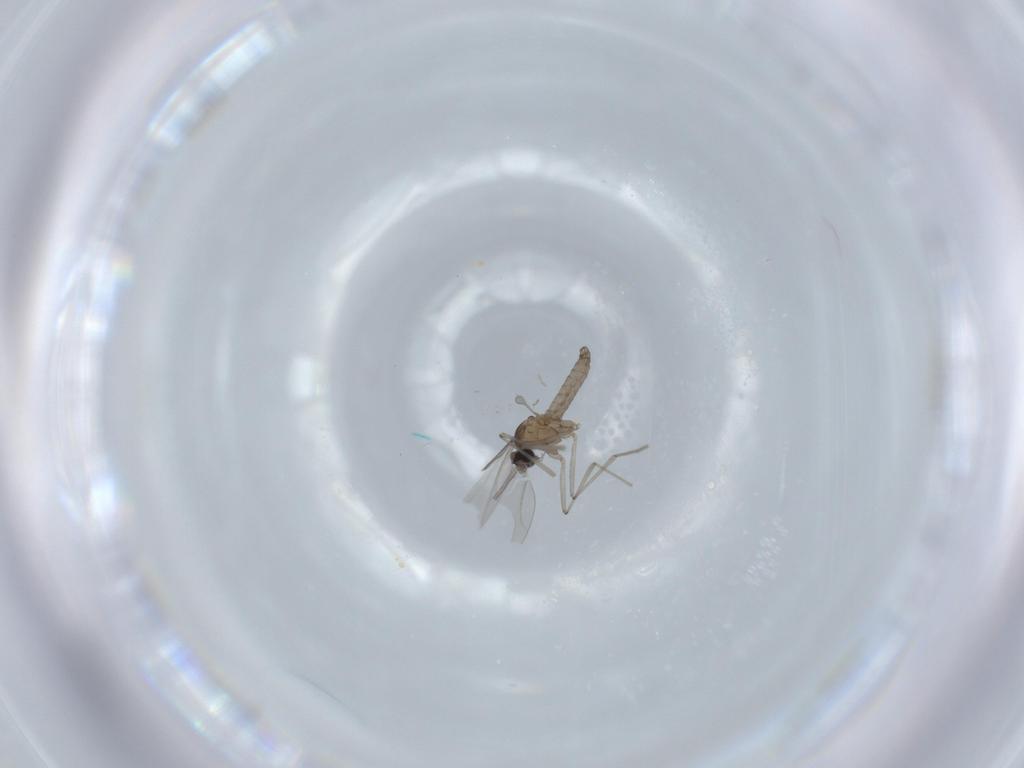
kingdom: Animalia
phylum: Arthropoda
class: Insecta
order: Diptera
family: Cecidomyiidae
